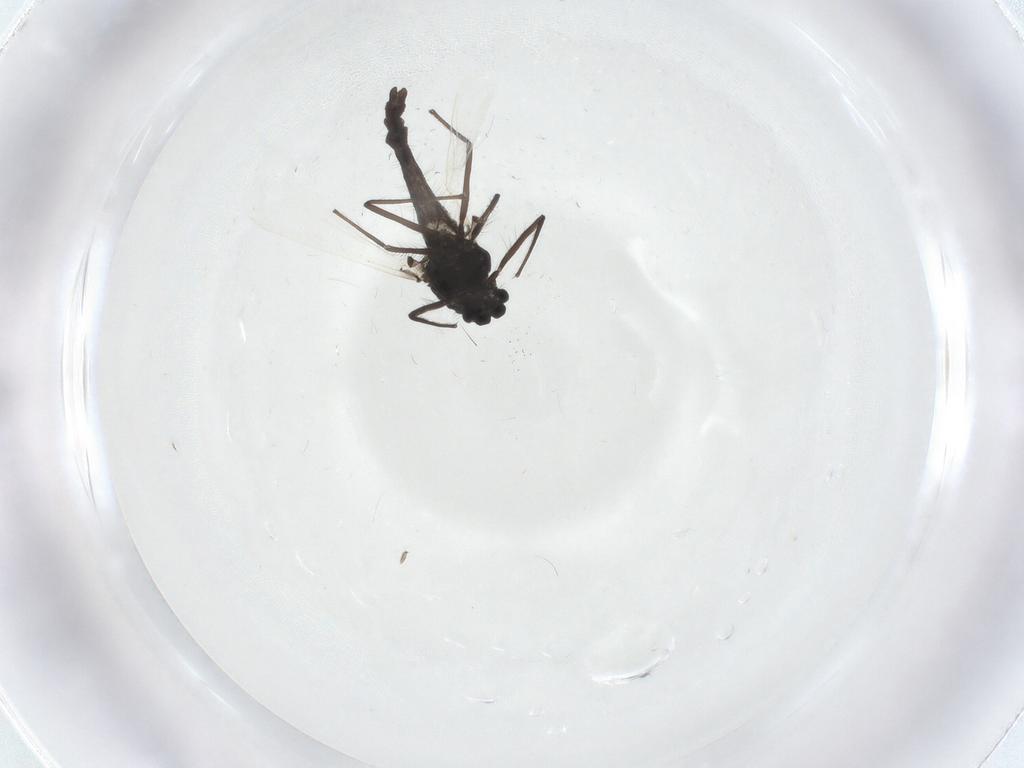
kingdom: Animalia
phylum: Arthropoda
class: Insecta
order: Diptera
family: Ceratopogonidae
